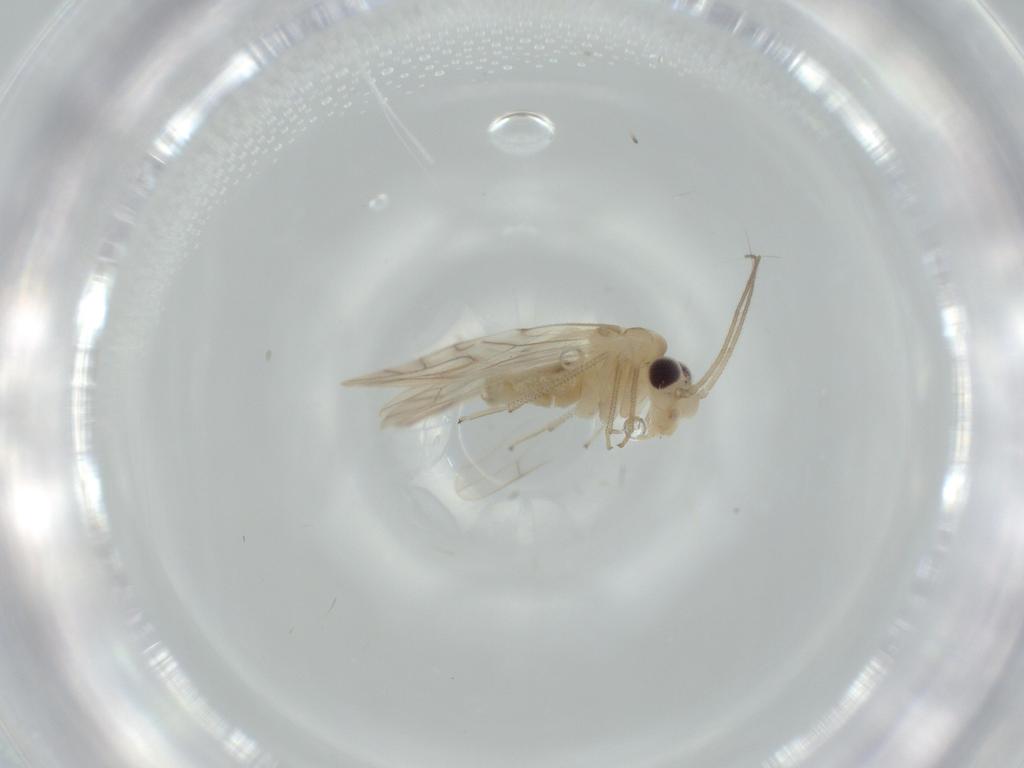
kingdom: Animalia
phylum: Arthropoda
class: Insecta
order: Psocodea
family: Caeciliusidae
